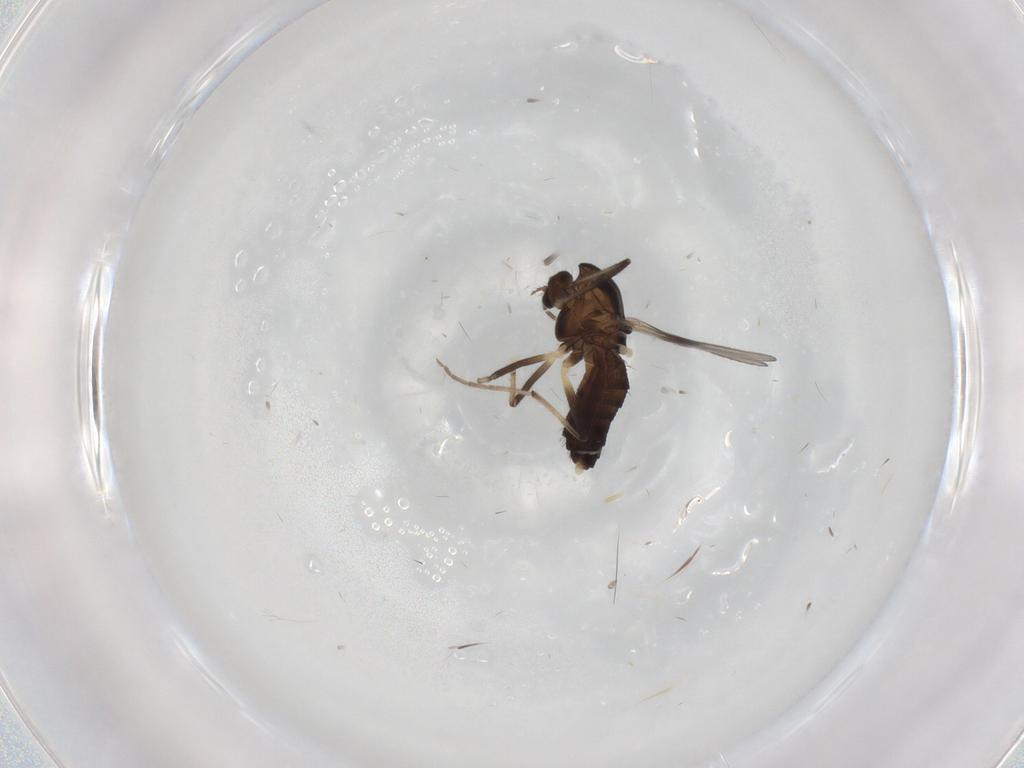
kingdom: Animalia
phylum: Arthropoda
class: Insecta
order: Diptera
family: Chironomidae
